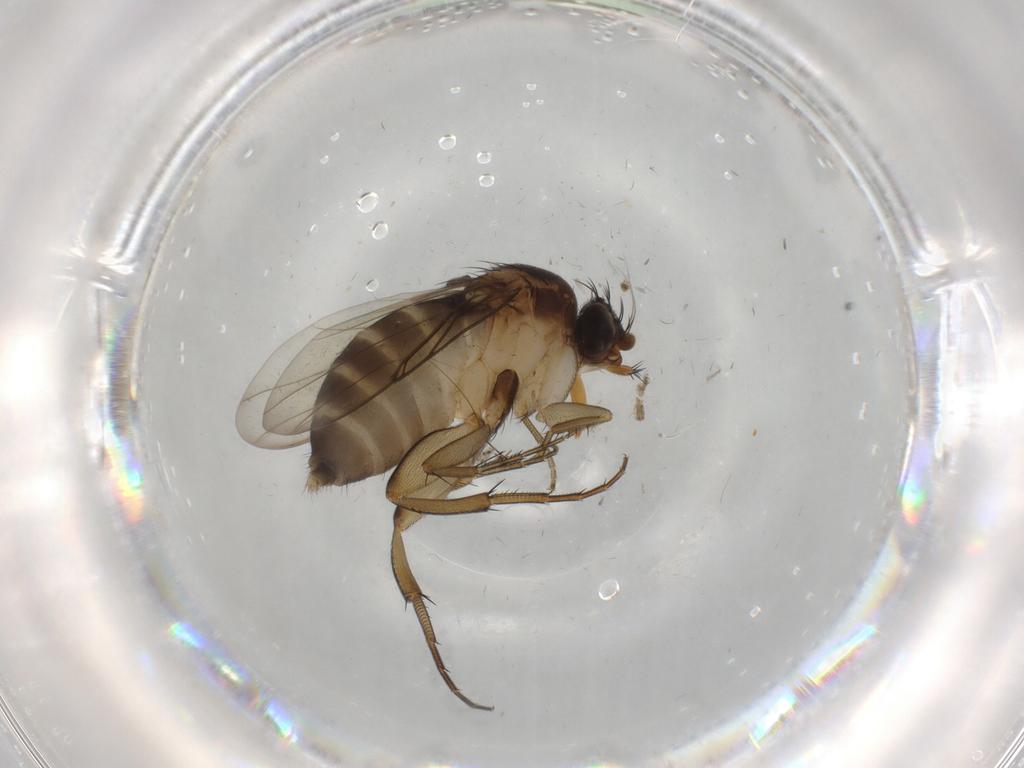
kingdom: Animalia
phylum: Arthropoda
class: Insecta
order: Diptera
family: Phoridae
